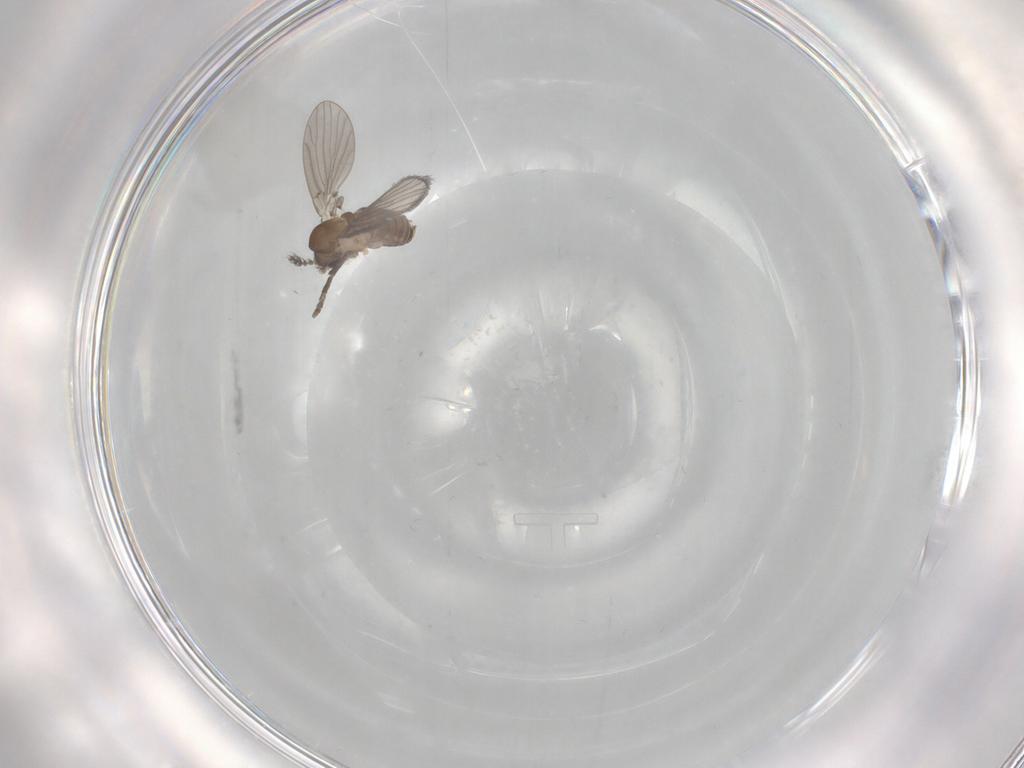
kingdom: Animalia
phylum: Arthropoda
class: Insecta
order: Diptera
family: Sciaridae
